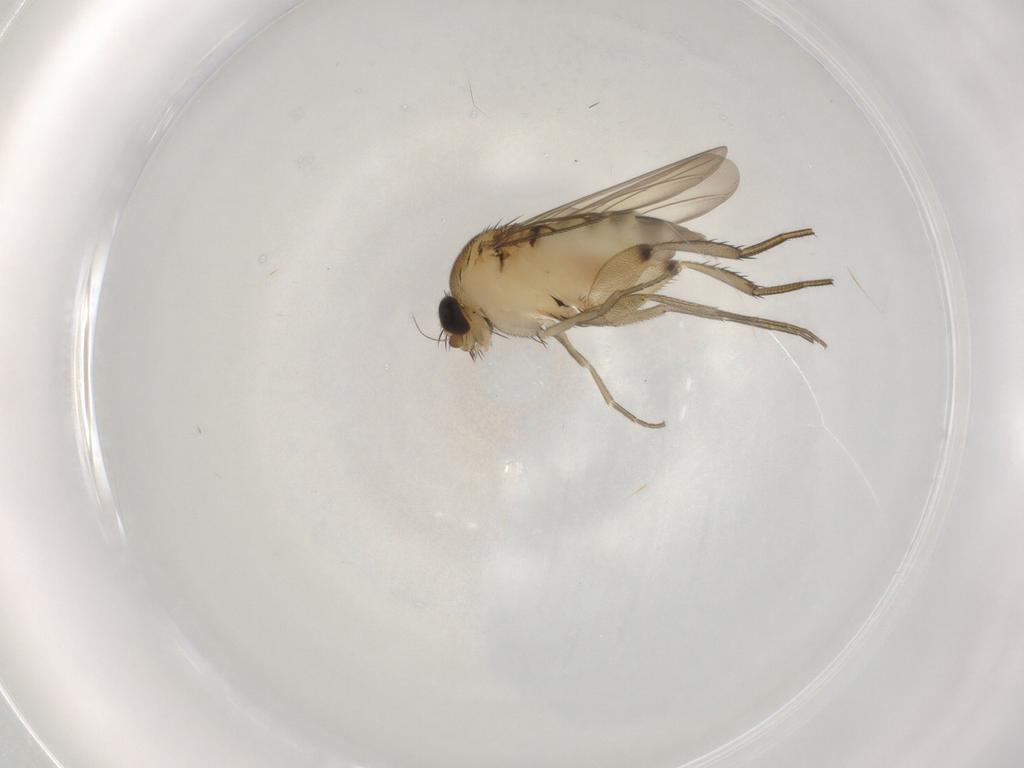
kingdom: Animalia
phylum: Arthropoda
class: Insecta
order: Diptera
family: Phoridae
